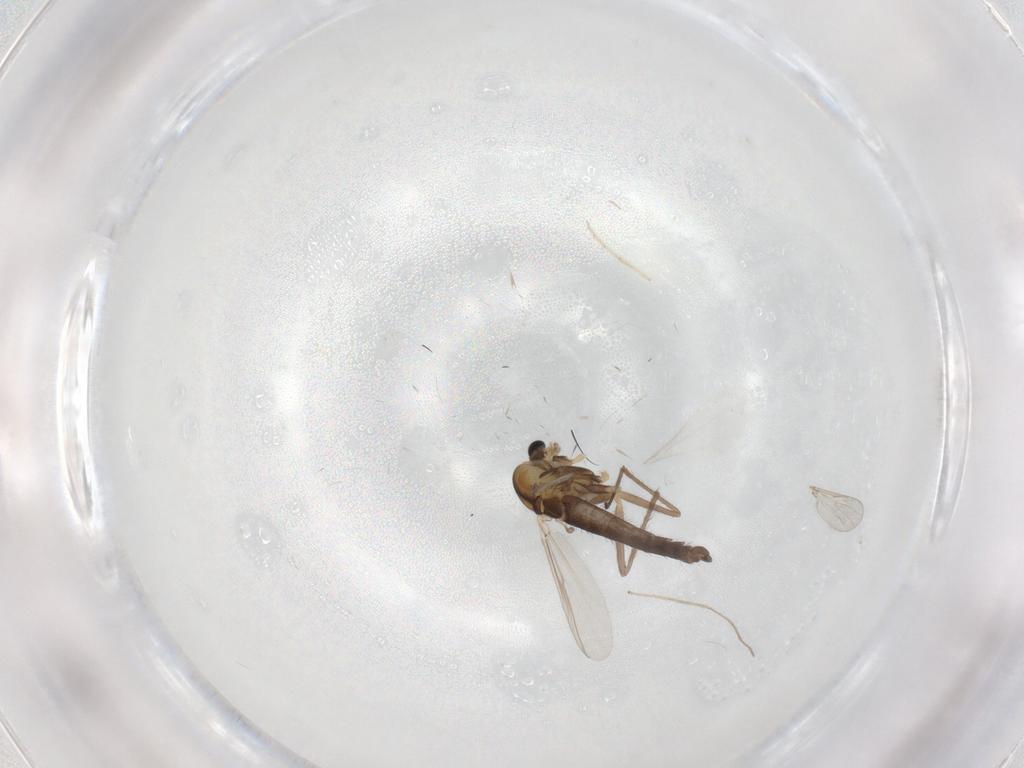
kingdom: Animalia
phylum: Arthropoda
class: Insecta
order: Diptera
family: Chironomidae
